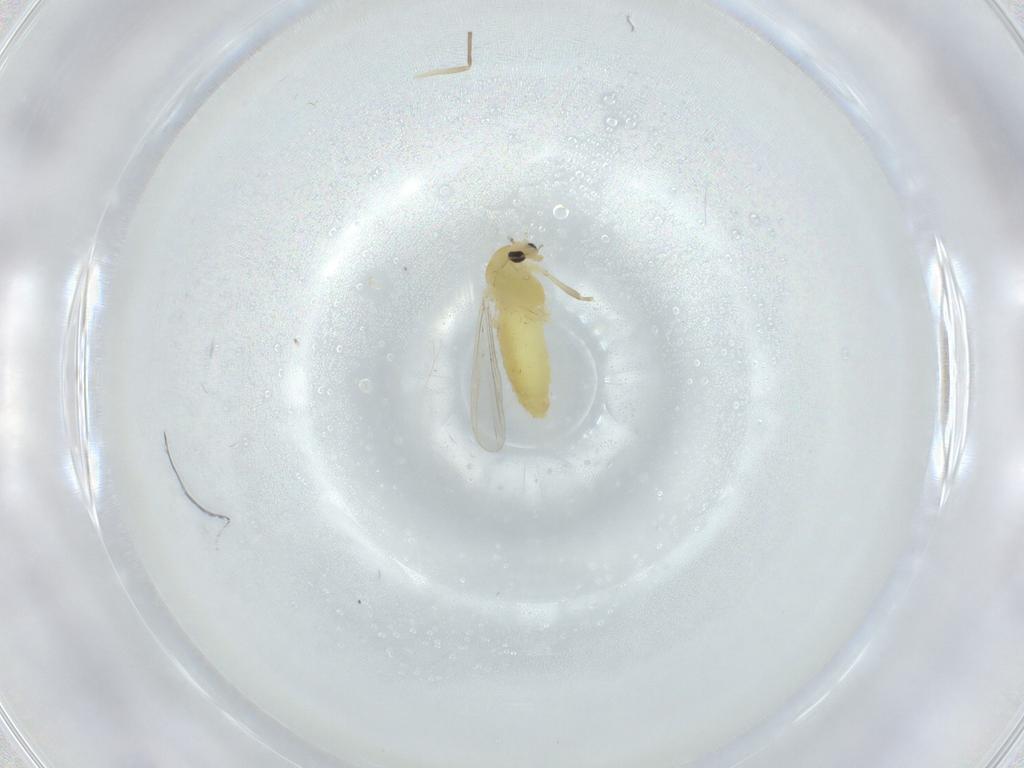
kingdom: Animalia
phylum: Arthropoda
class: Insecta
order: Diptera
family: Chironomidae
